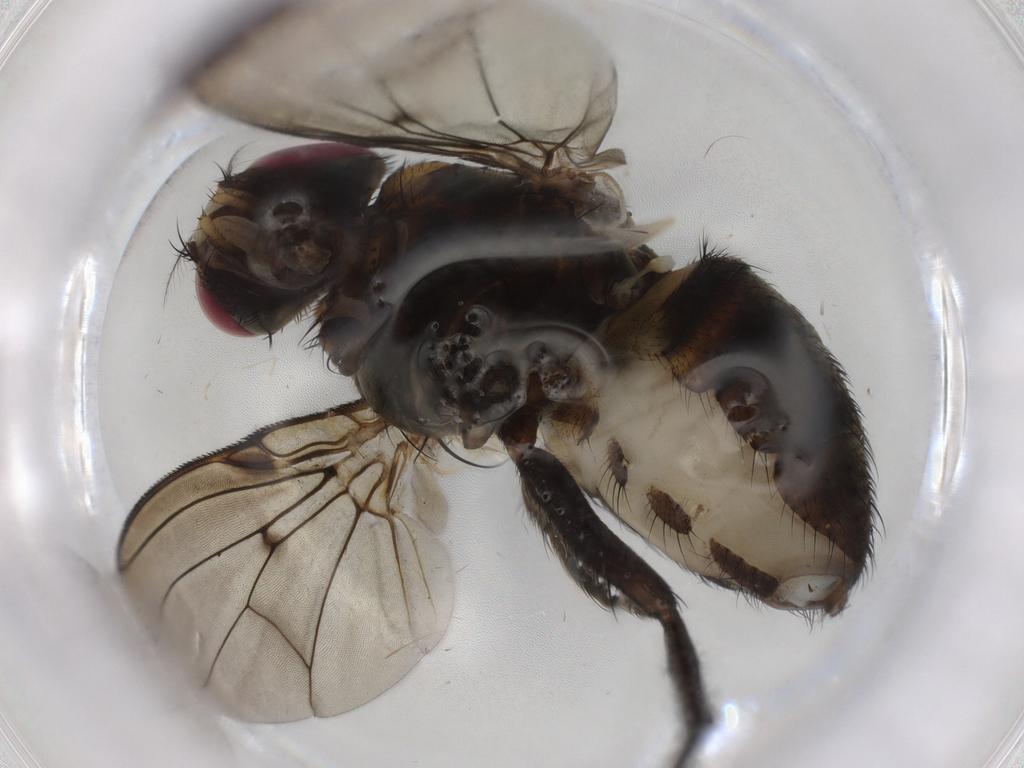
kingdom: Animalia
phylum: Arthropoda
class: Insecta
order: Diptera
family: Muscidae
